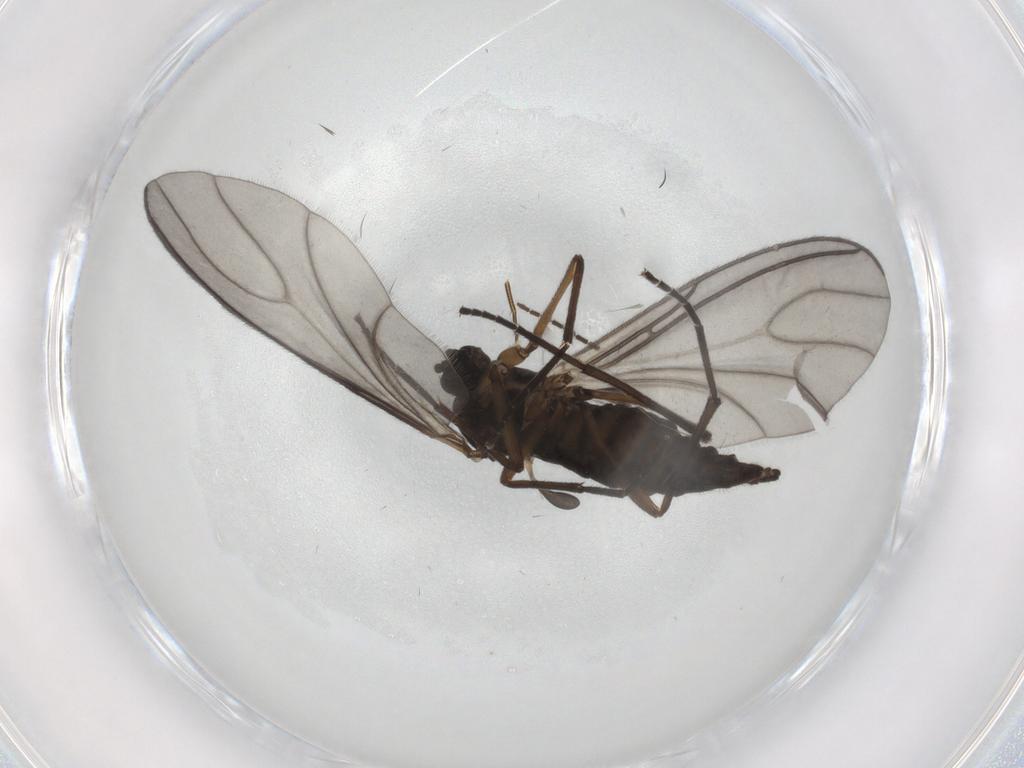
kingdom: Animalia
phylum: Arthropoda
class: Insecta
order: Diptera
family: Sciaridae
